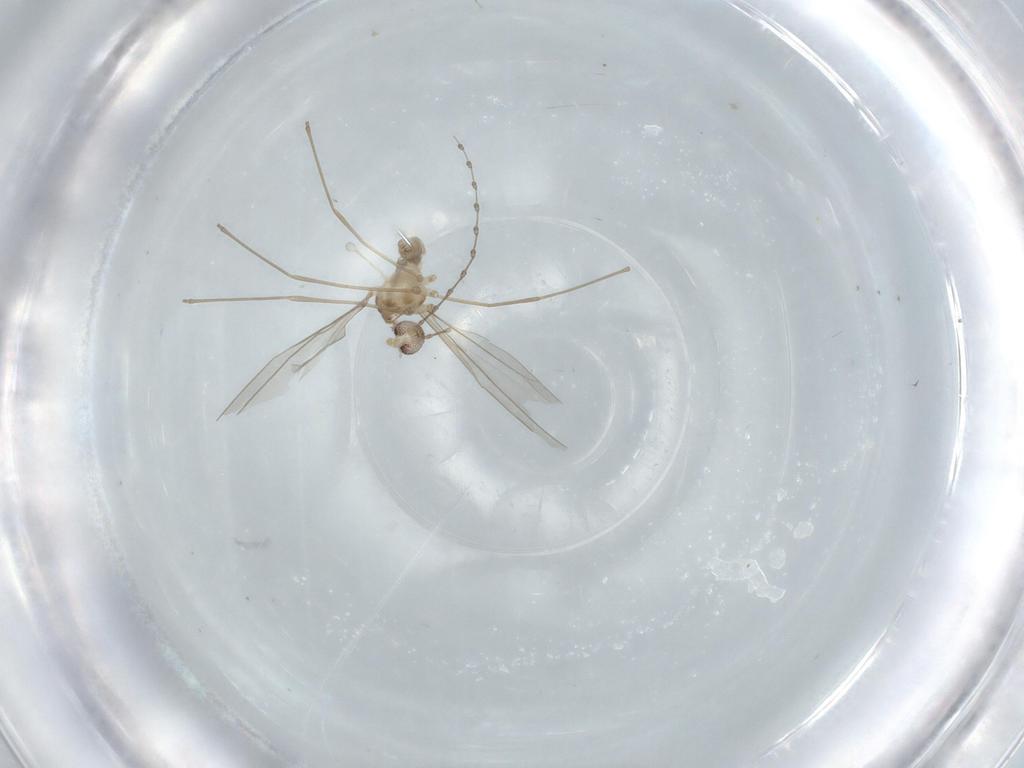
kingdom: Animalia
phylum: Arthropoda
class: Insecta
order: Diptera
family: Cecidomyiidae
